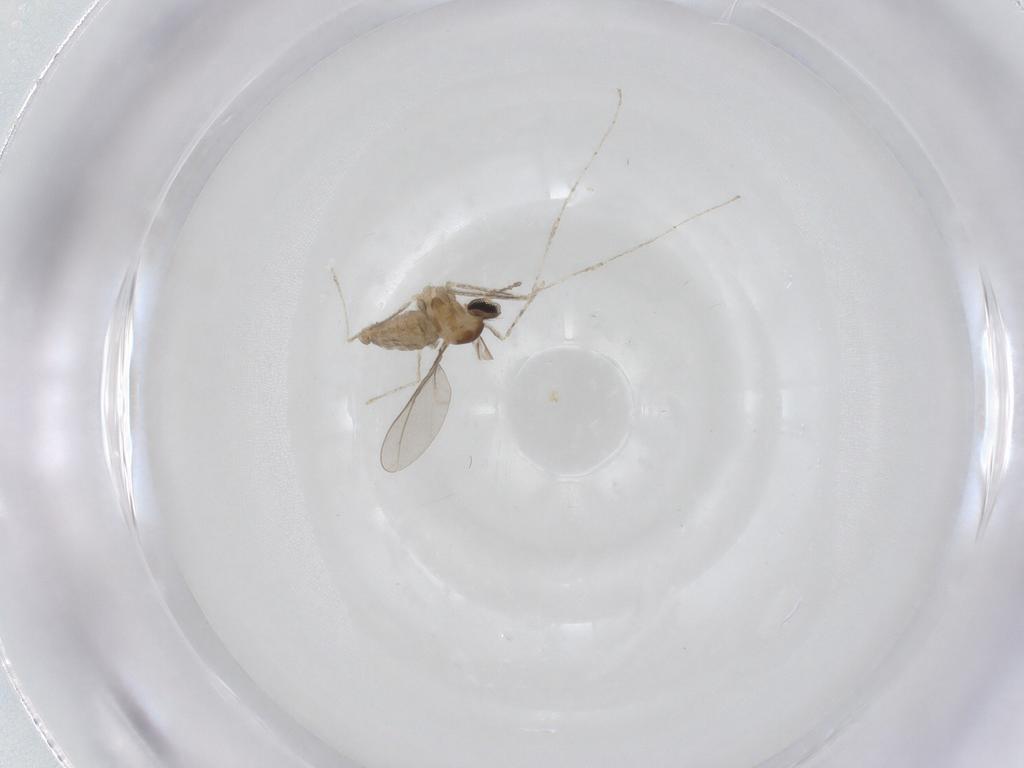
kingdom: Animalia
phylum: Arthropoda
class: Insecta
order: Diptera
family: Cecidomyiidae
